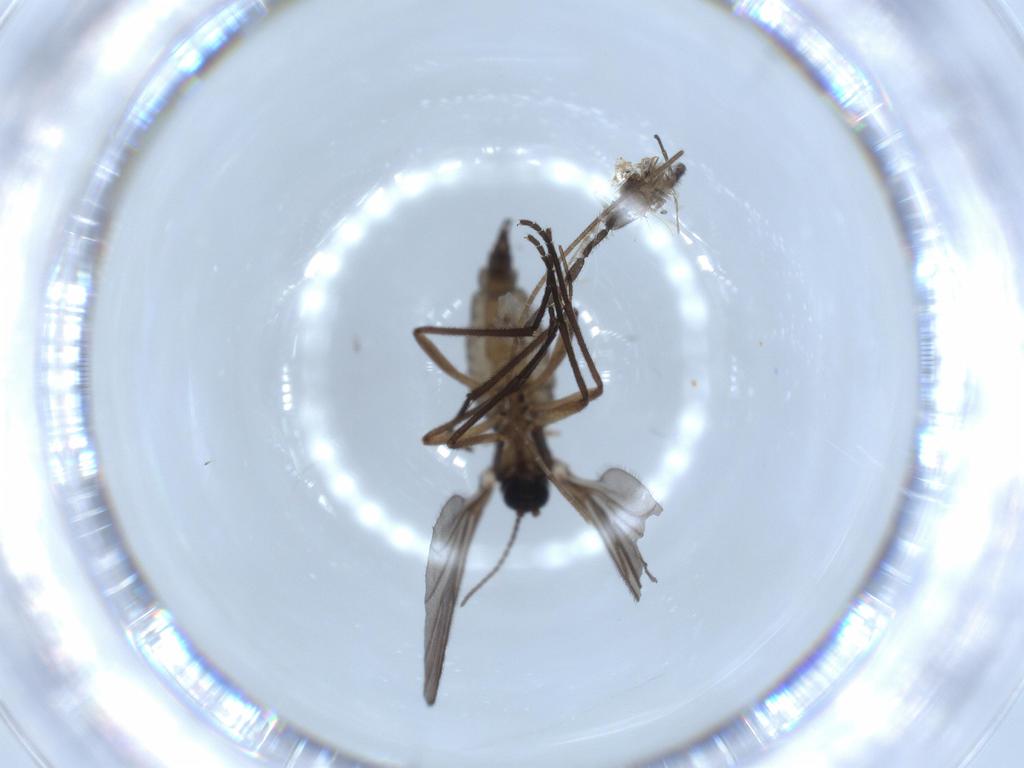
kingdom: Animalia
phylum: Arthropoda
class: Insecta
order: Diptera
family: Sciaridae
